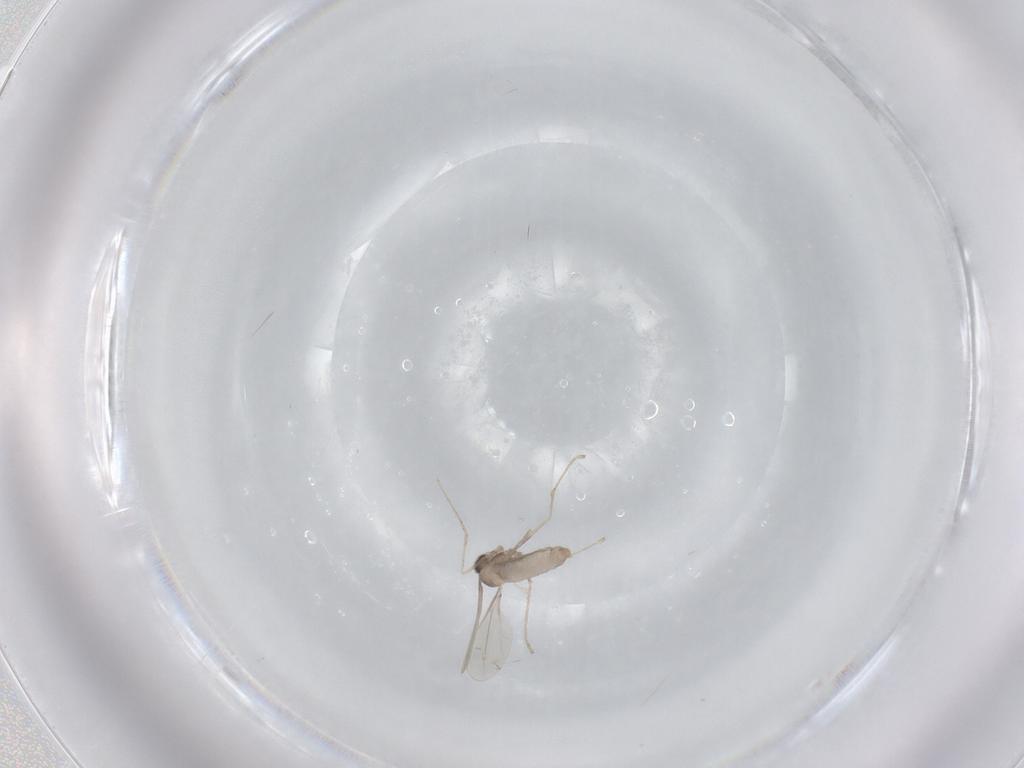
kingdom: Animalia
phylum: Arthropoda
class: Insecta
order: Diptera
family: Cecidomyiidae
